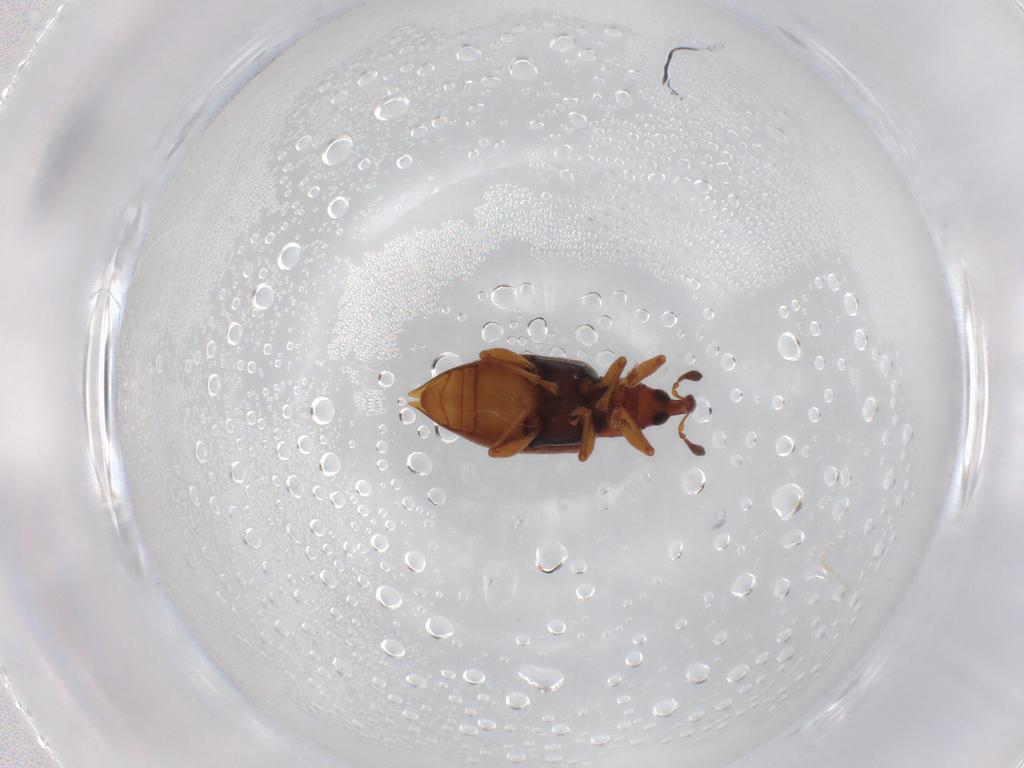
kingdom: Animalia
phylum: Arthropoda
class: Insecta
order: Coleoptera
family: Curculionidae
